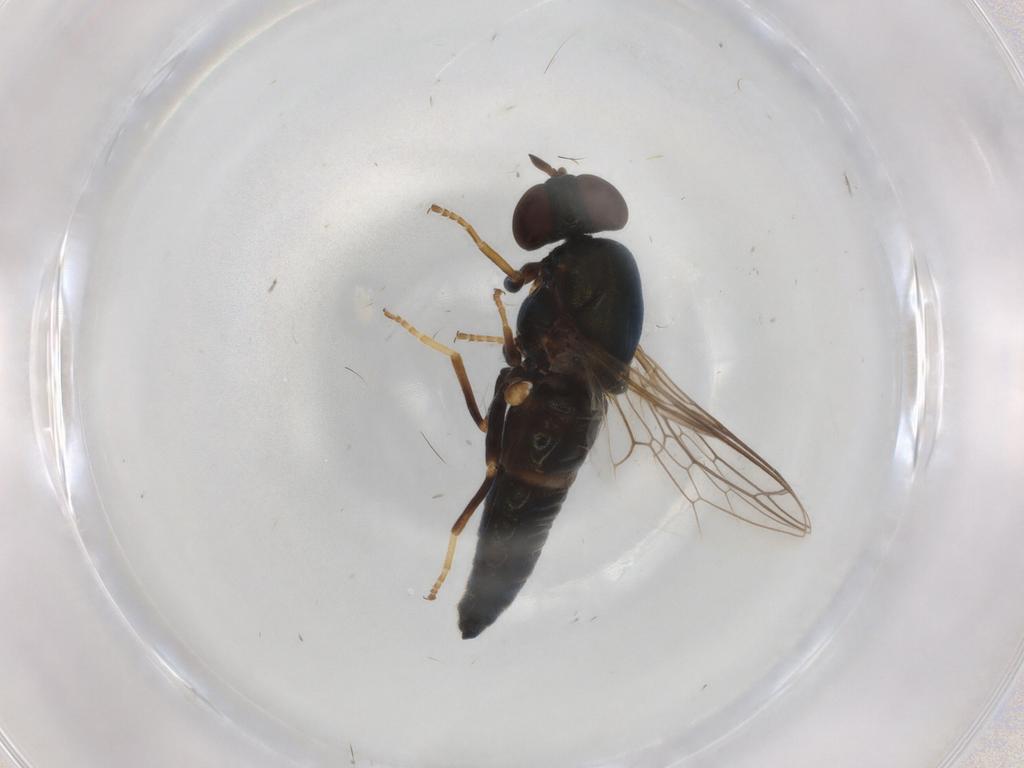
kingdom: Animalia
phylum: Arthropoda
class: Insecta
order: Diptera
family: Scenopinidae
